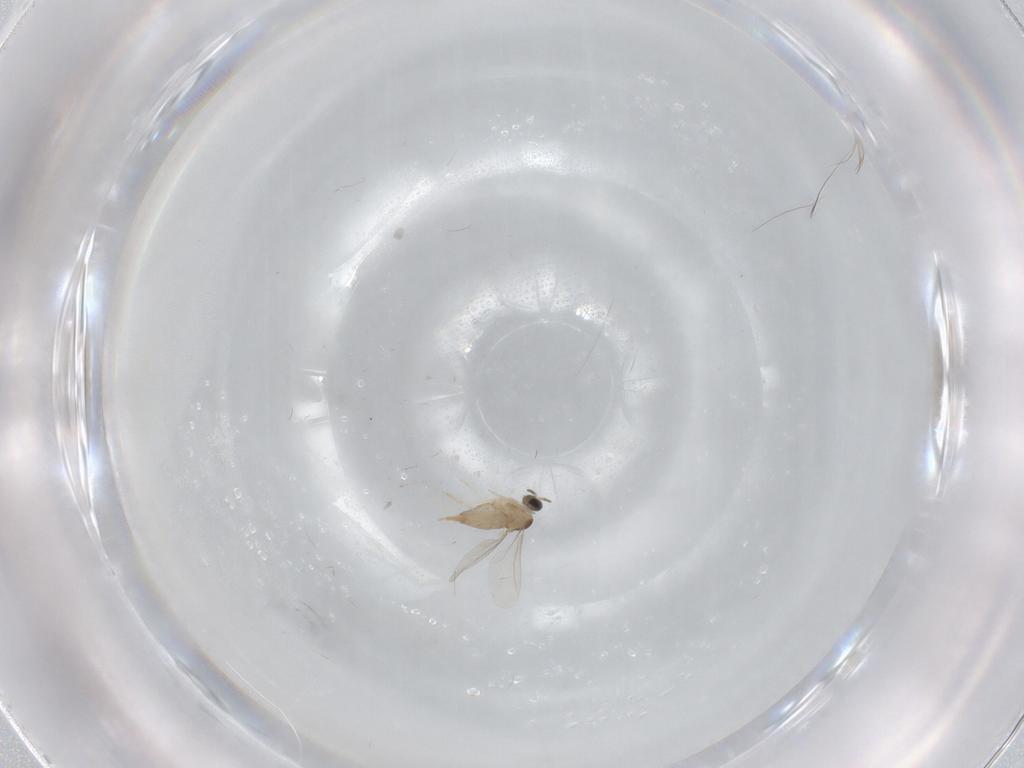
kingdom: Animalia
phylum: Arthropoda
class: Insecta
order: Diptera
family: Cecidomyiidae
